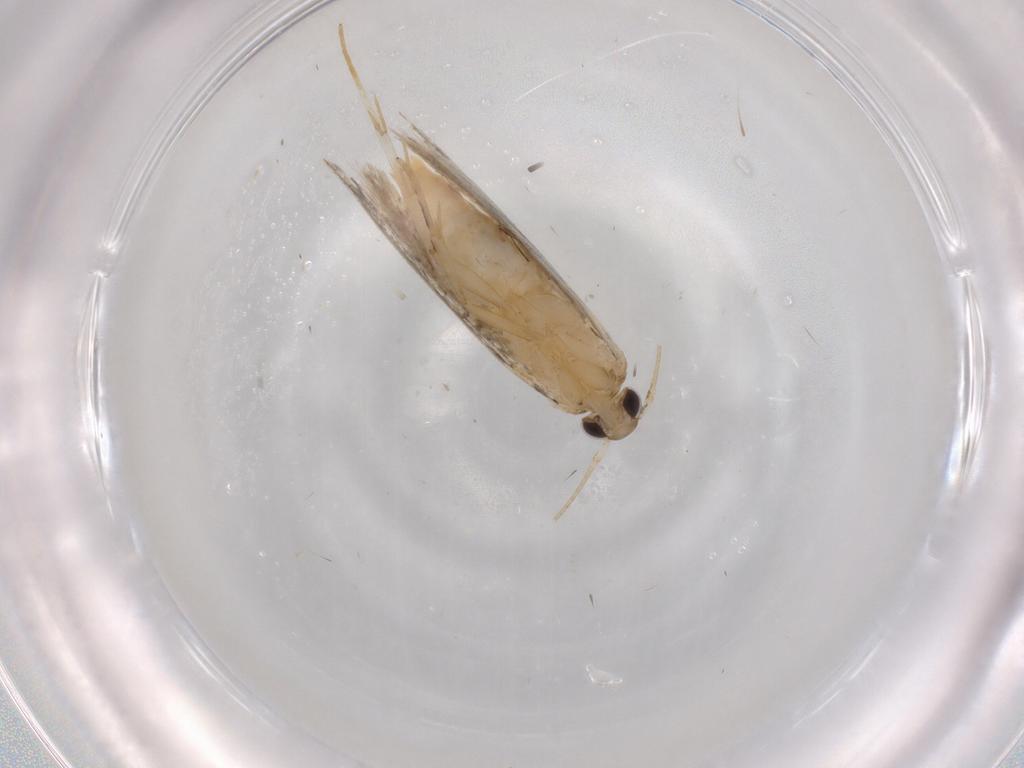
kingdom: Animalia
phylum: Arthropoda
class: Insecta
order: Lepidoptera
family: Autostichidae
